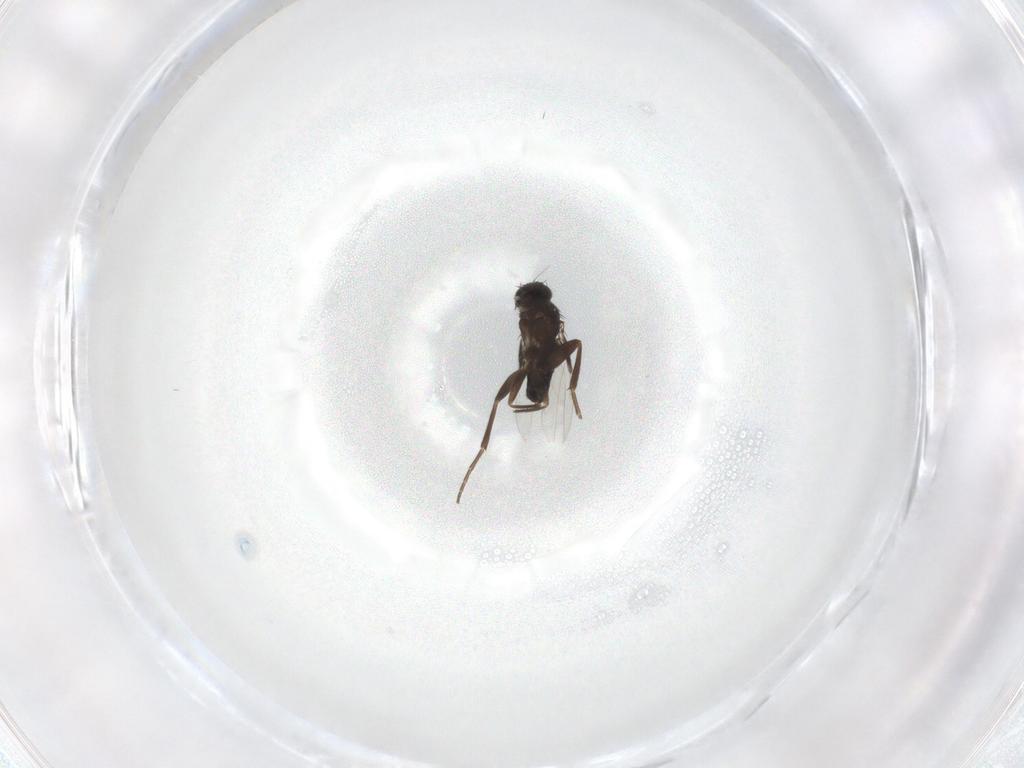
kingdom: Animalia
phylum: Arthropoda
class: Insecta
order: Diptera
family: Phoridae
